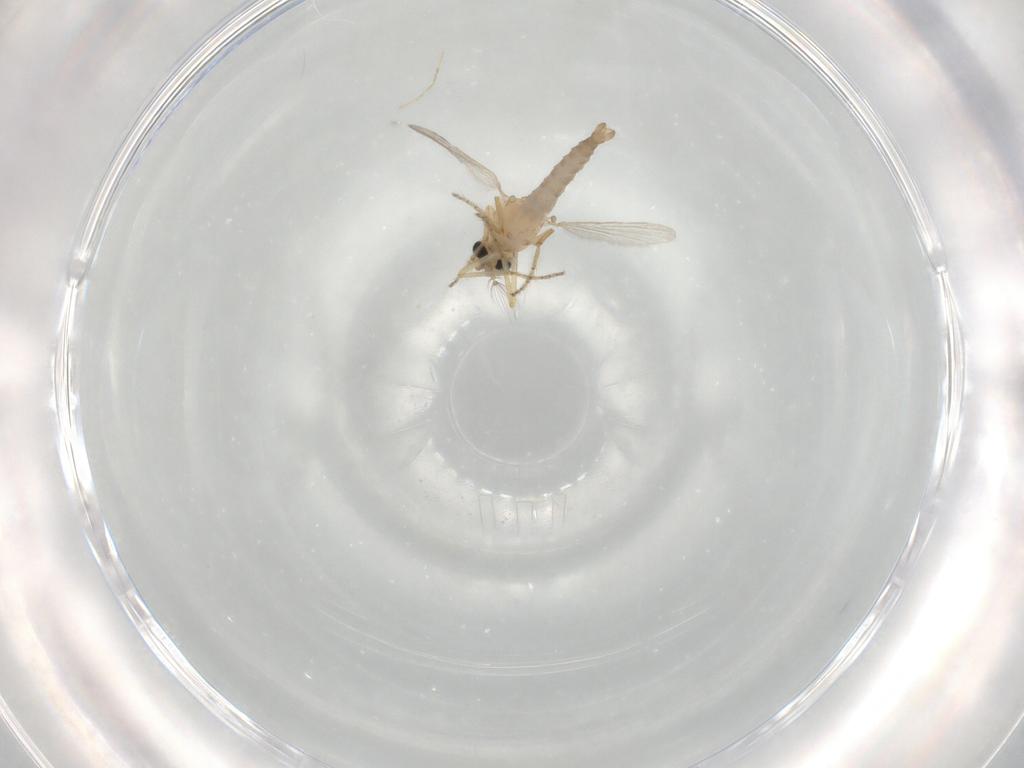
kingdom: Animalia
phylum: Arthropoda
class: Insecta
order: Diptera
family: Ceratopogonidae
